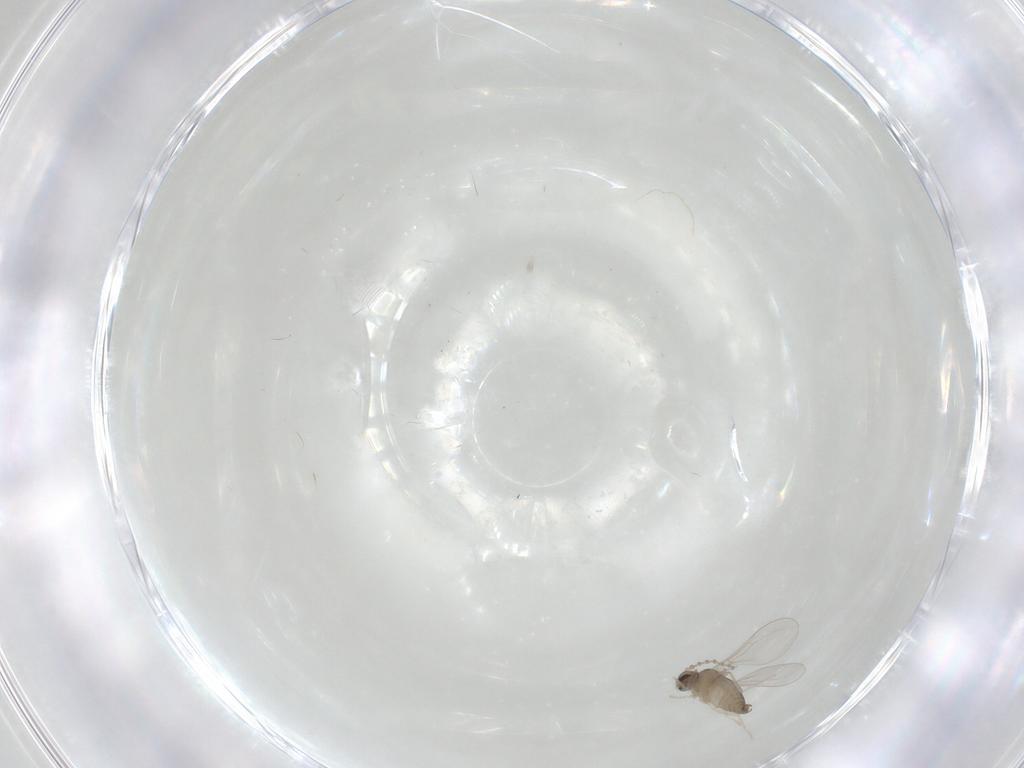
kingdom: Animalia
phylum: Arthropoda
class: Insecta
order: Diptera
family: Cecidomyiidae
